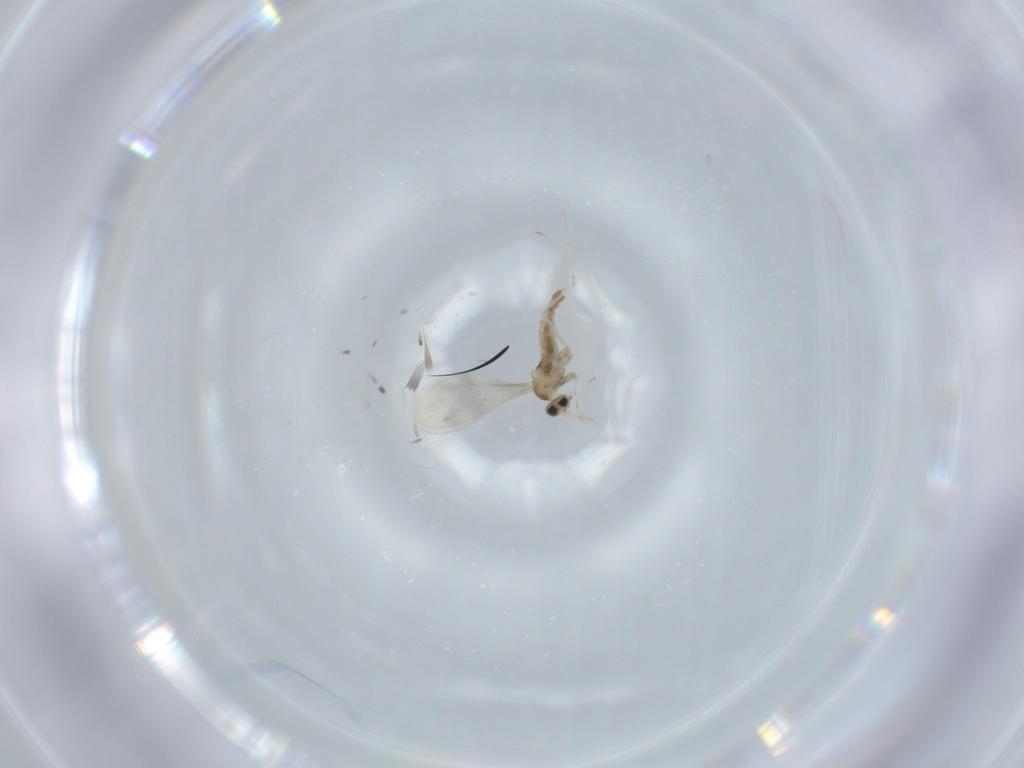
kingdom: Animalia
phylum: Arthropoda
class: Insecta
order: Diptera
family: Cecidomyiidae
